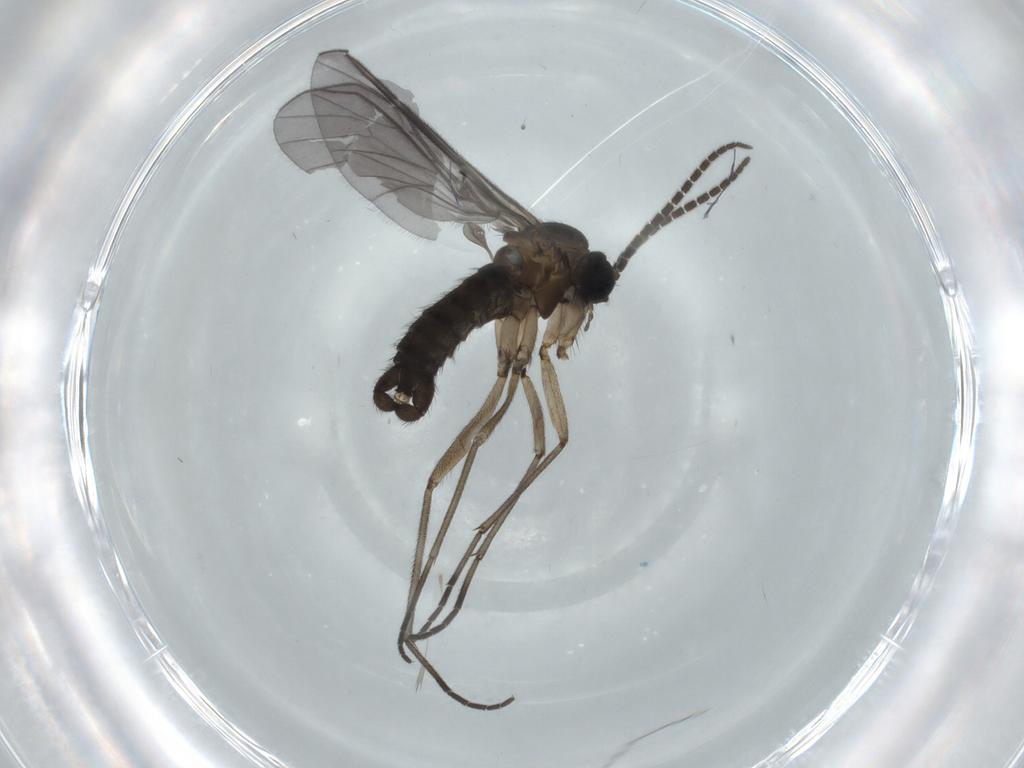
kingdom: Animalia
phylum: Arthropoda
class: Insecta
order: Diptera
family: Sciaridae
